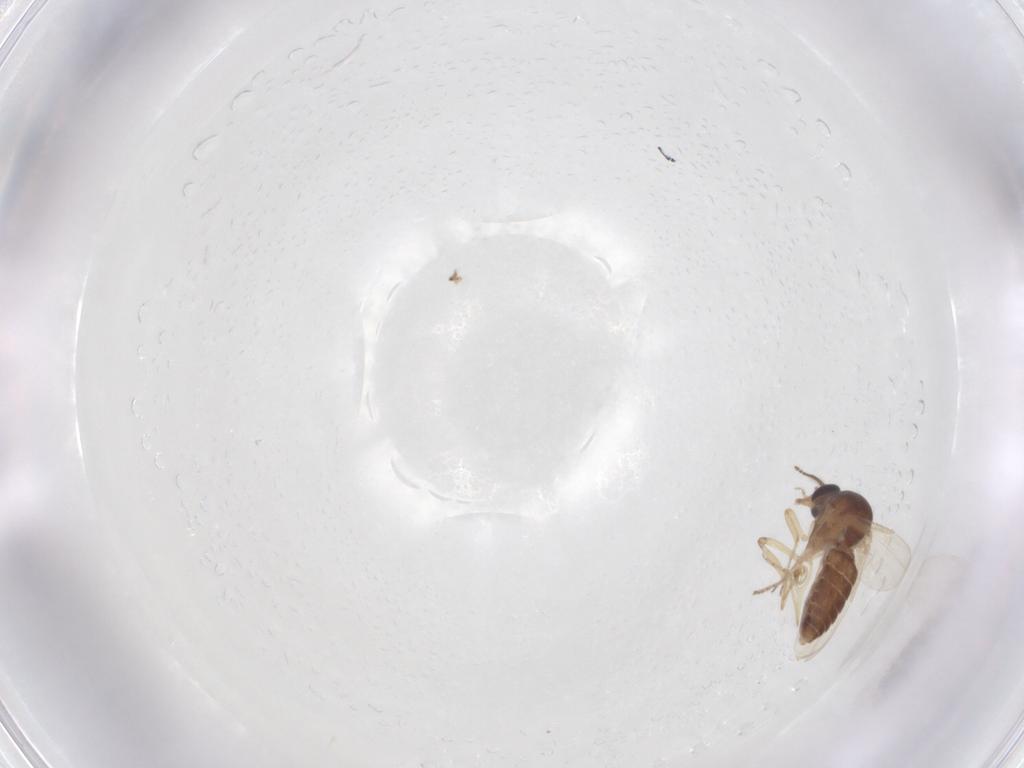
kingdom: Animalia
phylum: Arthropoda
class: Insecta
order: Diptera
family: Ceratopogonidae
